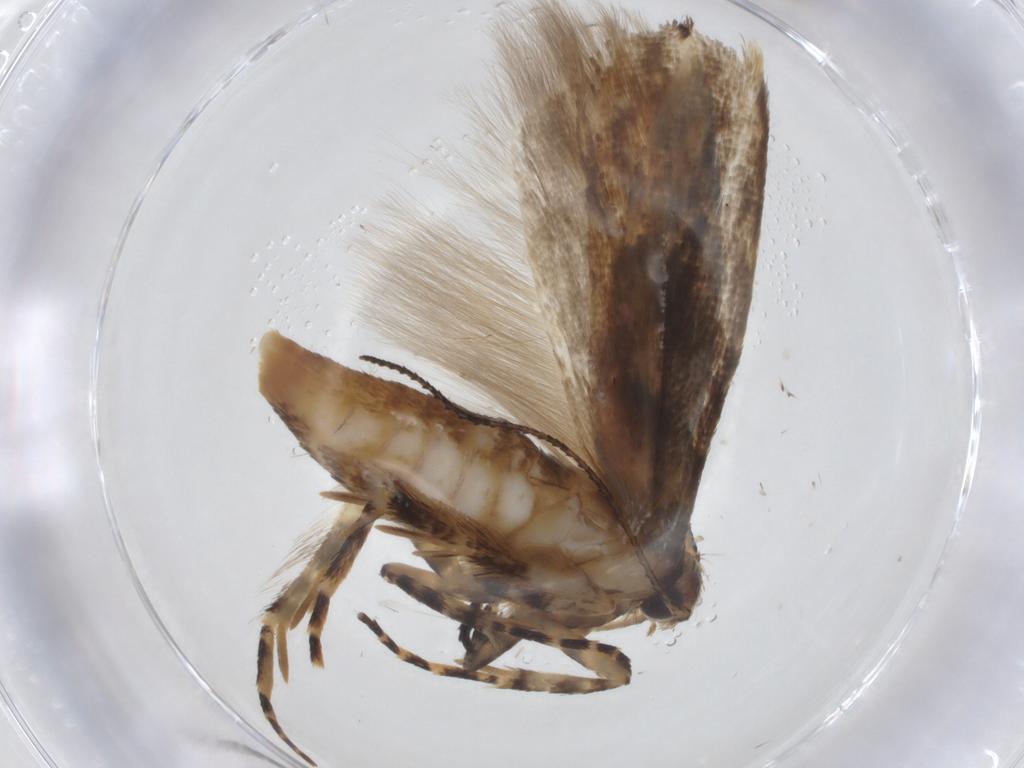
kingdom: Animalia
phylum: Arthropoda
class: Insecta
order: Lepidoptera
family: Gelechiidae
